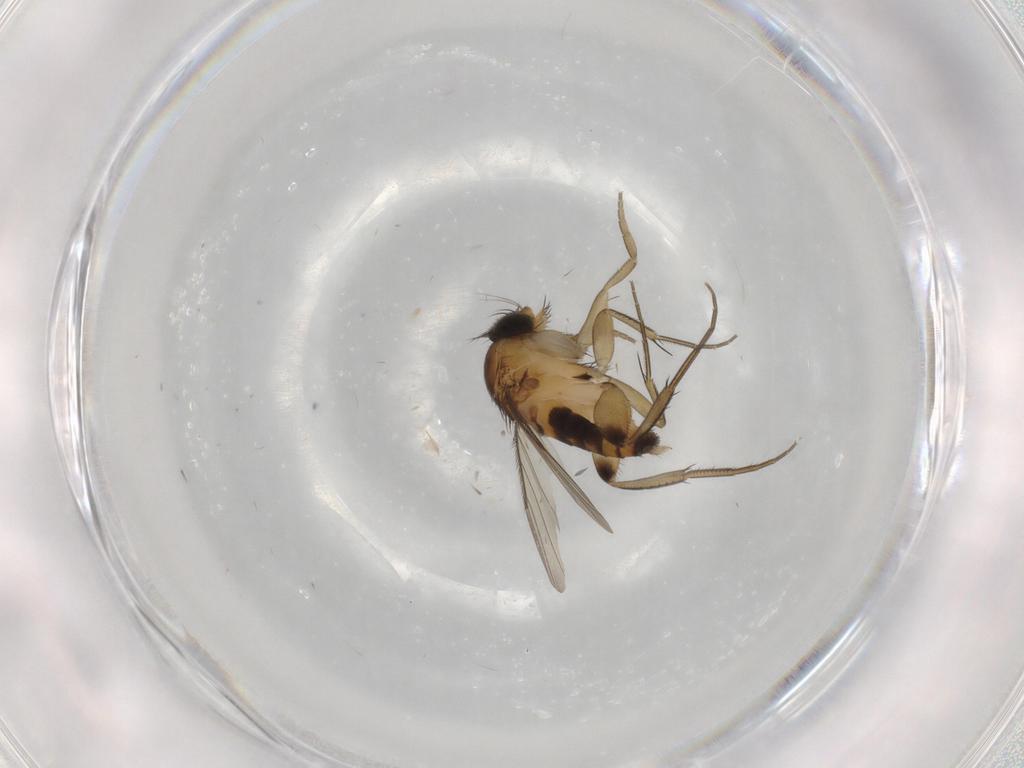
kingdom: Animalia
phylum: Arthropoda
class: Insecta
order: Diptera
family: Phoridae
